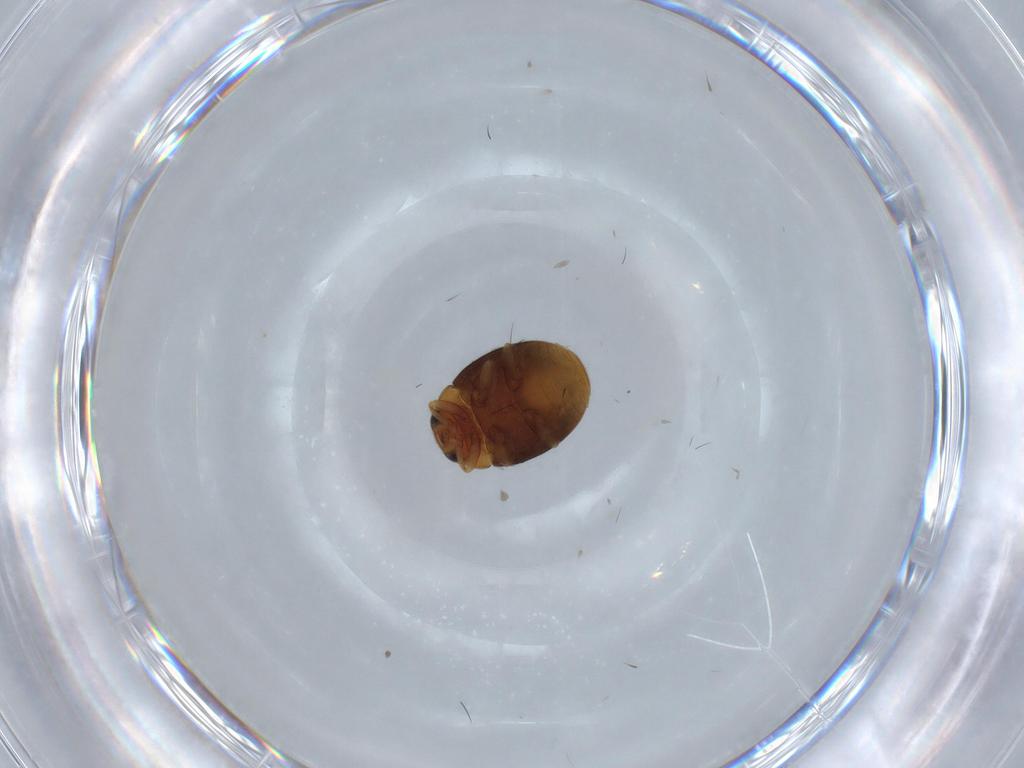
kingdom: Animalia
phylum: Arthropoda
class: Insecta
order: Coleoptera
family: Coccinellidae
